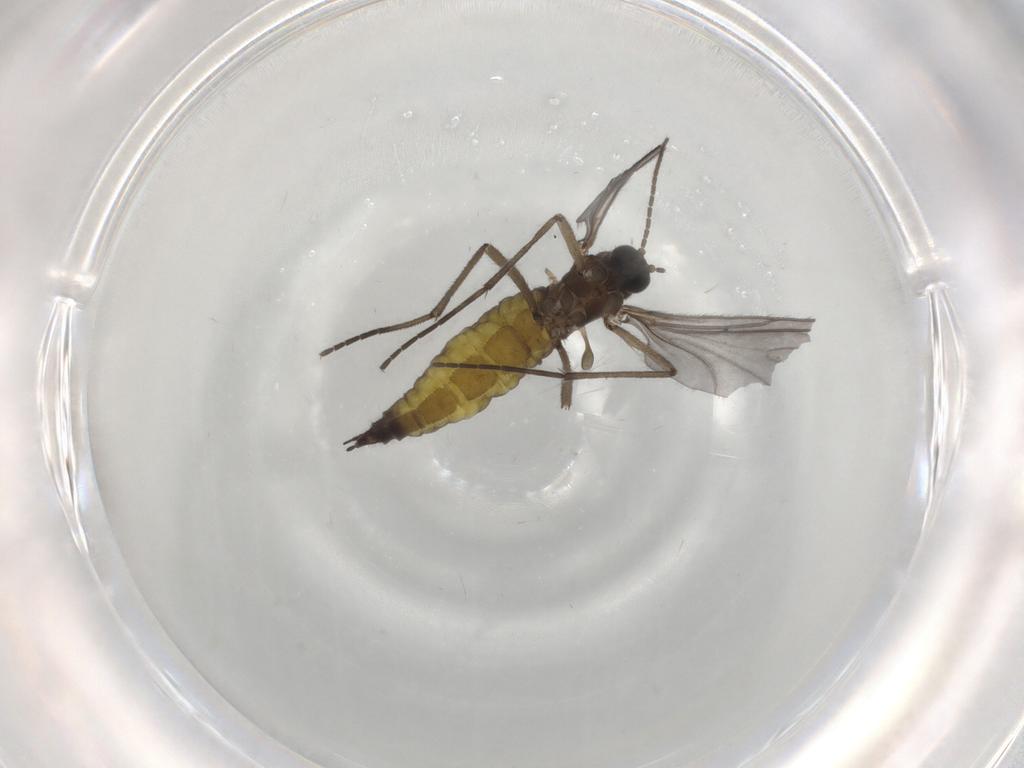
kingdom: Animalia
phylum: Arthropoda
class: Insecta
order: Diptera
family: Sciaridae
